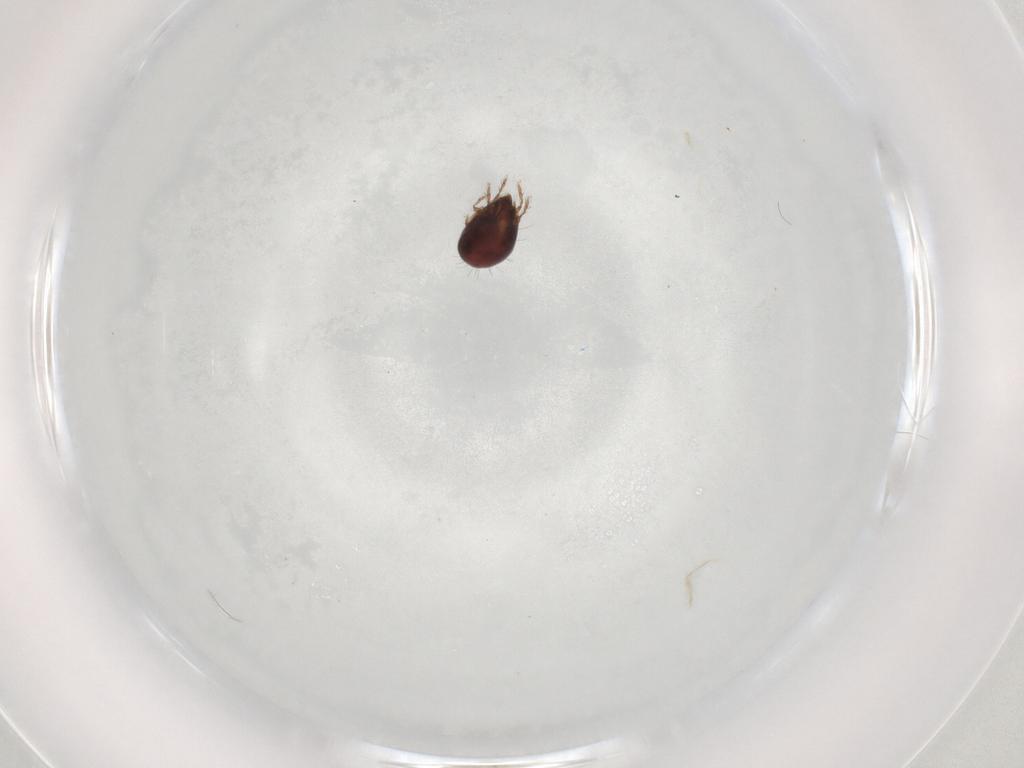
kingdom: Animalia
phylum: Arthropoda
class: Arachnida
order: Sarcoptiformes
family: Humerobatidae
